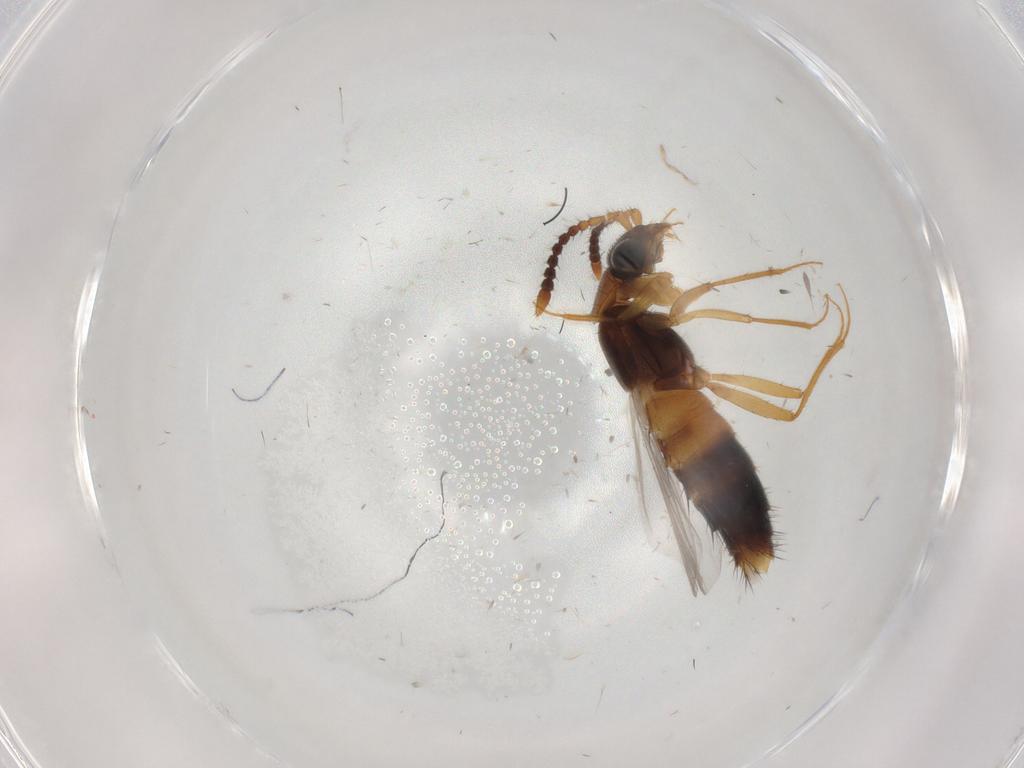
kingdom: Animalia
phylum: Arthropoda
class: Insecta
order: Coleoptera
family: Staphylinidae
